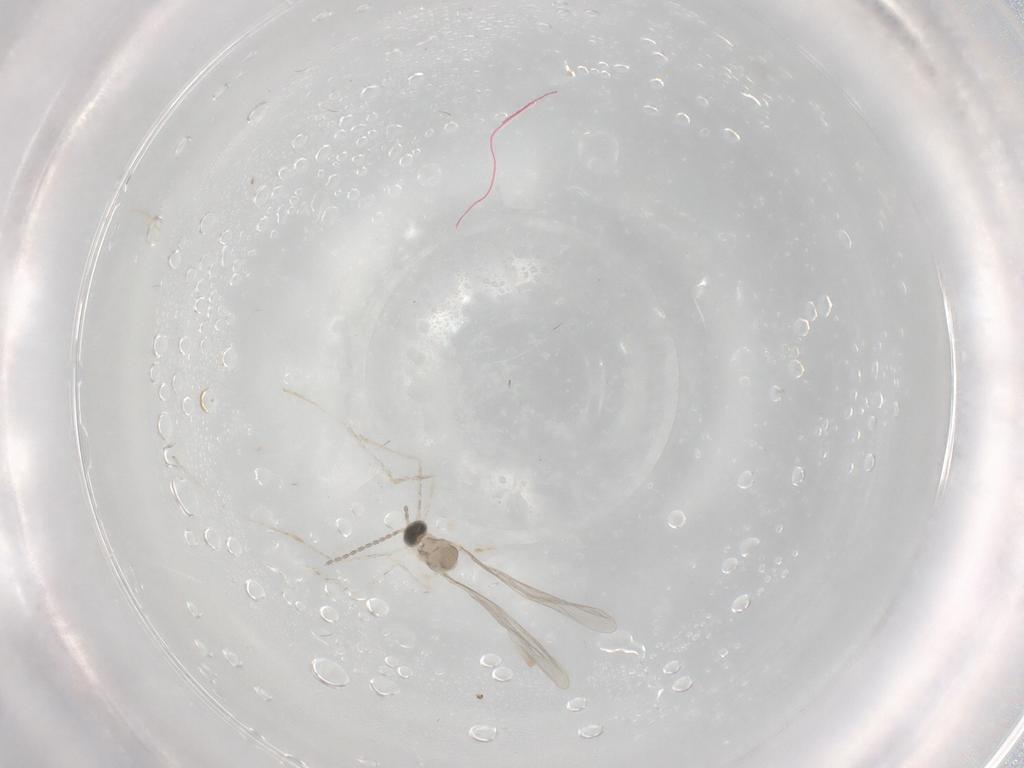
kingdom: Animalia
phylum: Arthropoda
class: Insecta
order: Diptera
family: Cecidomyiidae
